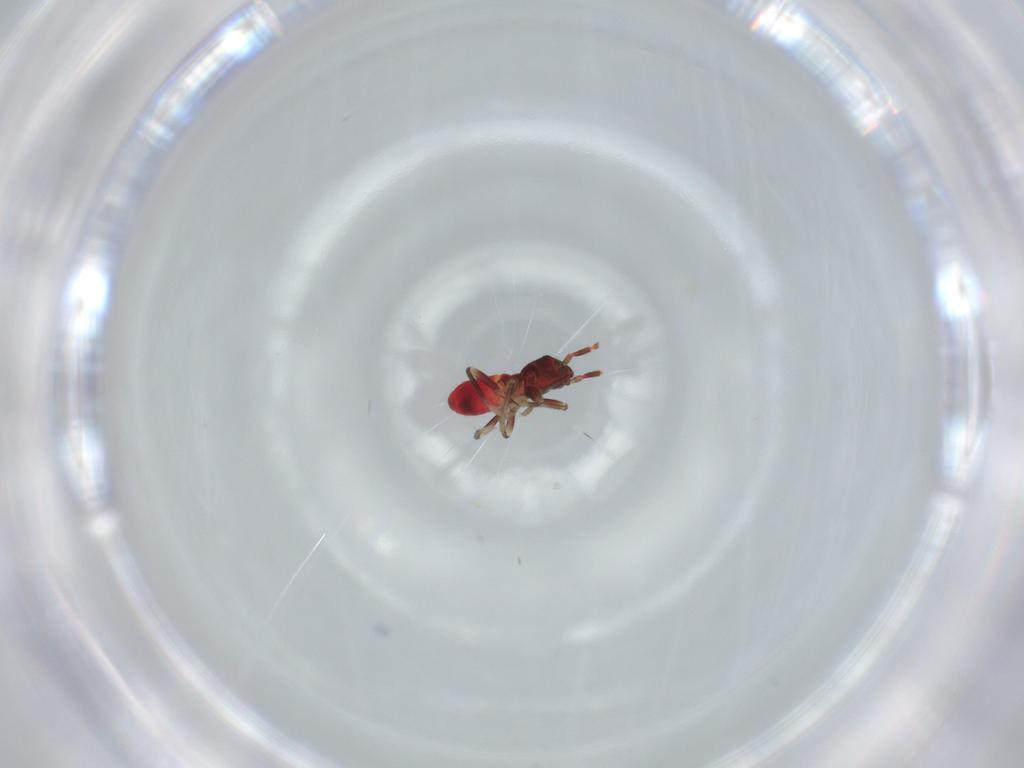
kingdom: Animalia
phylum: Arthropoda
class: Insecta
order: Hemiptera
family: Rhyparochromidae
